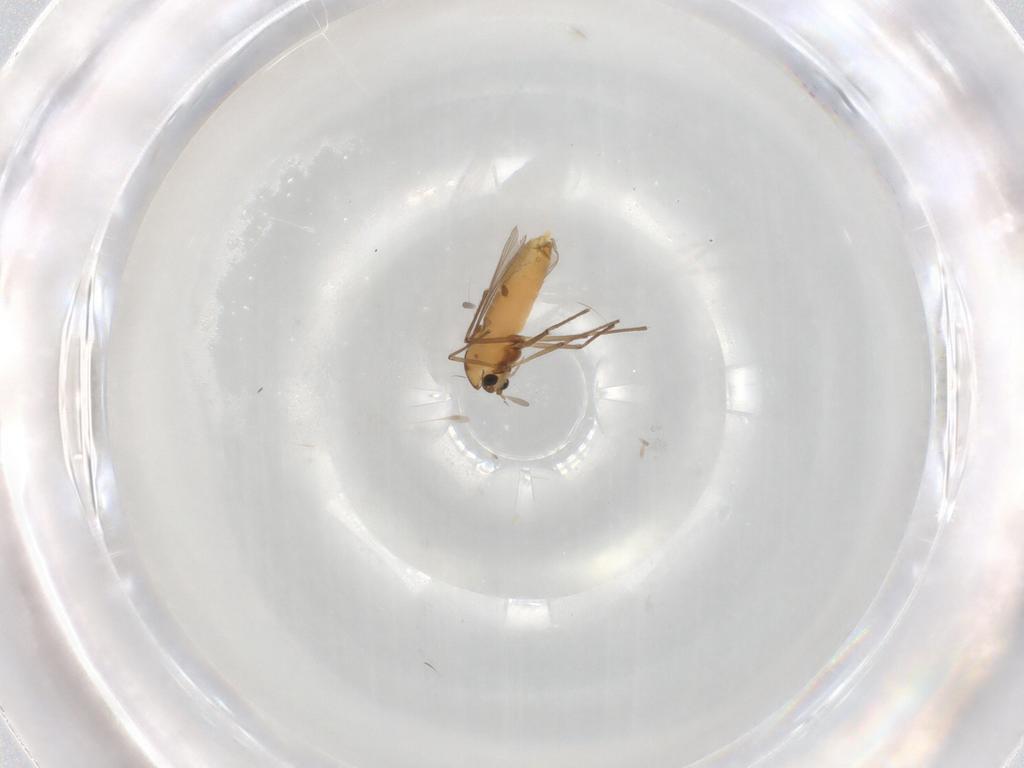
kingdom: Animalia
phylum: Arthropoda
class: Insecta
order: Diptera
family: Chironomidae
